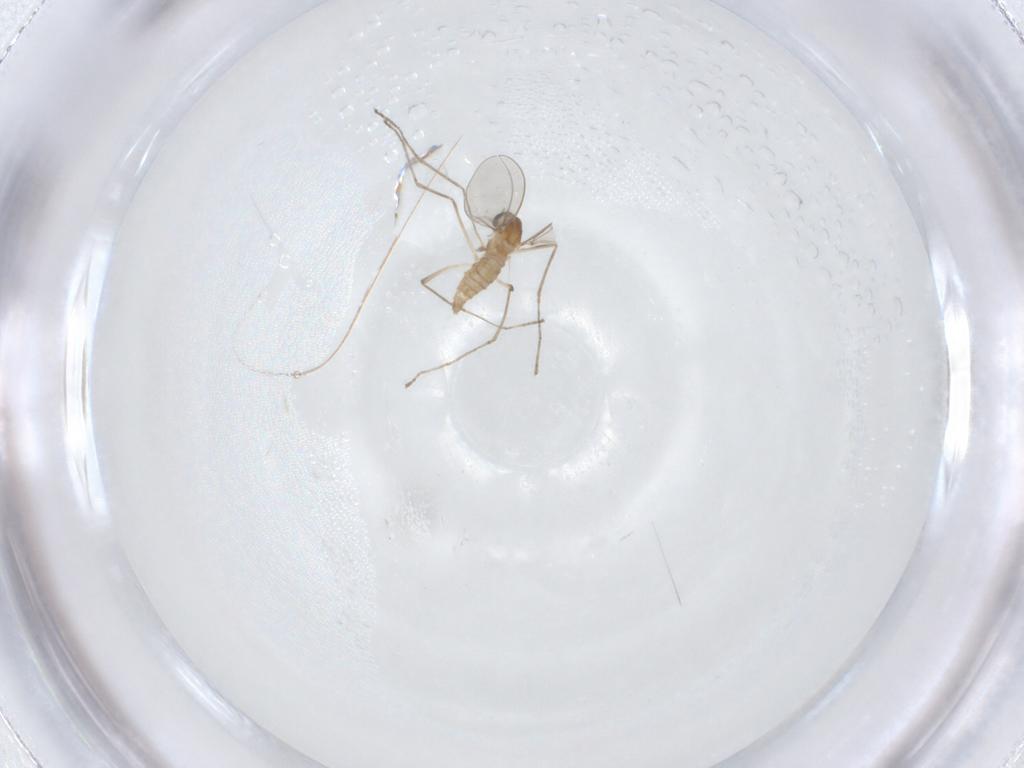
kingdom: Animalia
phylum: Arthropoda
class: Insecta
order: Diptera
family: Cecidomyiidae
